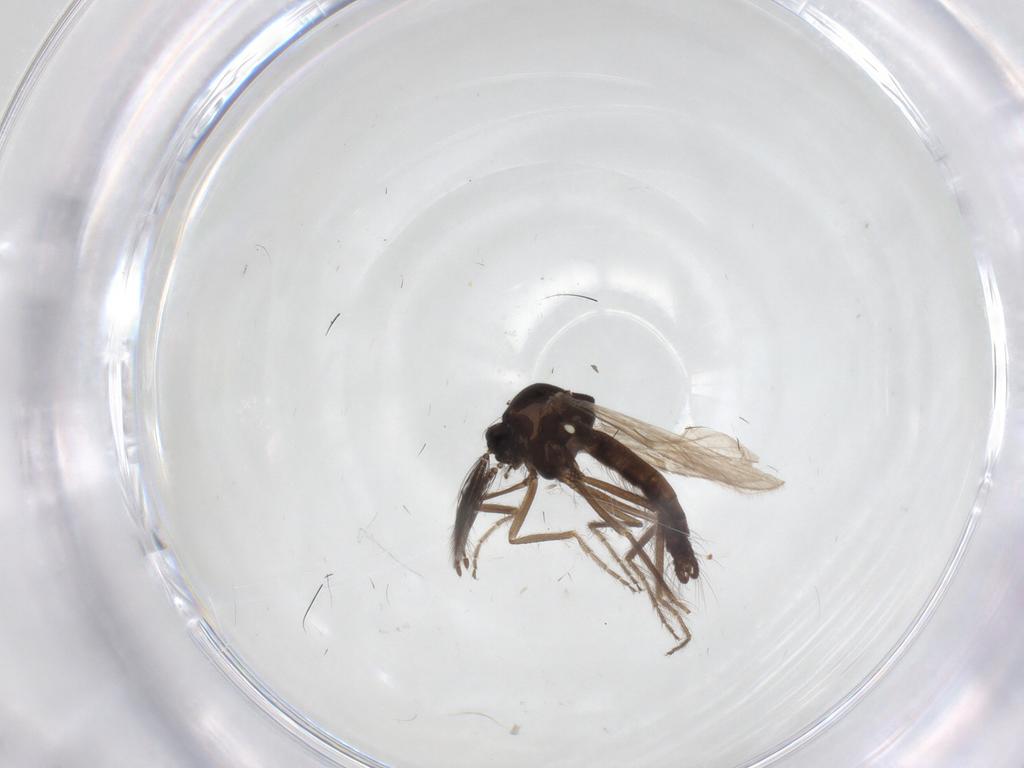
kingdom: Animalia
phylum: Arthropoda
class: Insecta
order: Diptera
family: Ceratopogonidae
